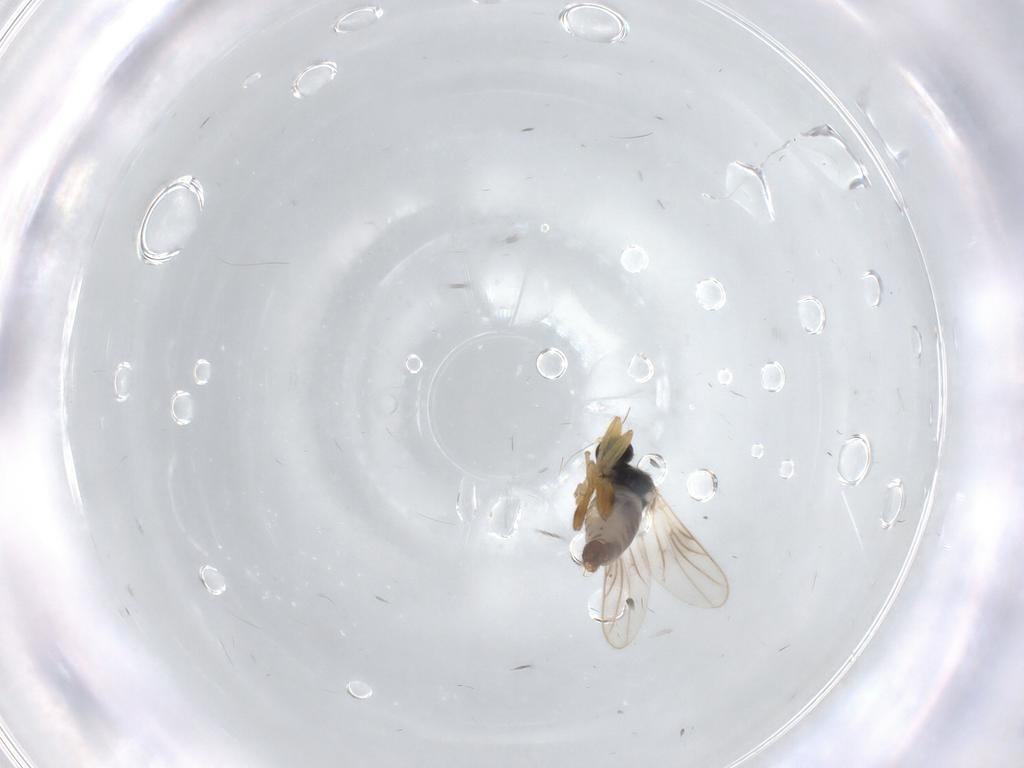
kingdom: Animalia
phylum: Arthropoda
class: Insecta
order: Diptera
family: Hybotidae
